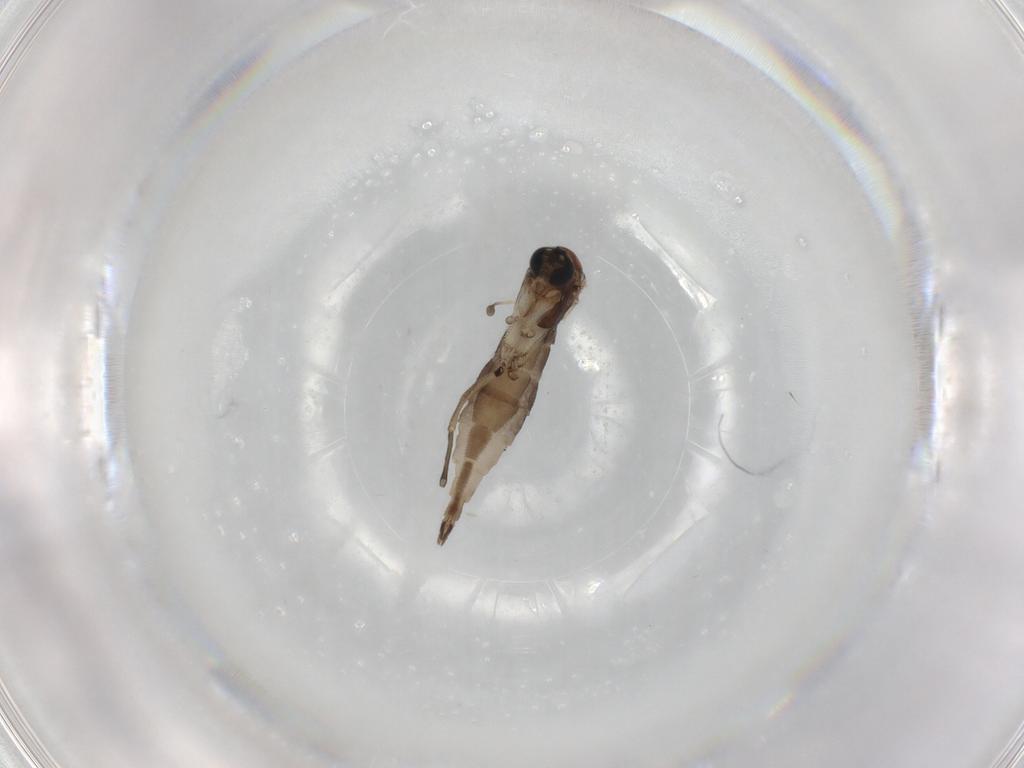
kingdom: Animalia
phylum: Arthropoda
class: Insecta
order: Diptera
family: Sciaridae
